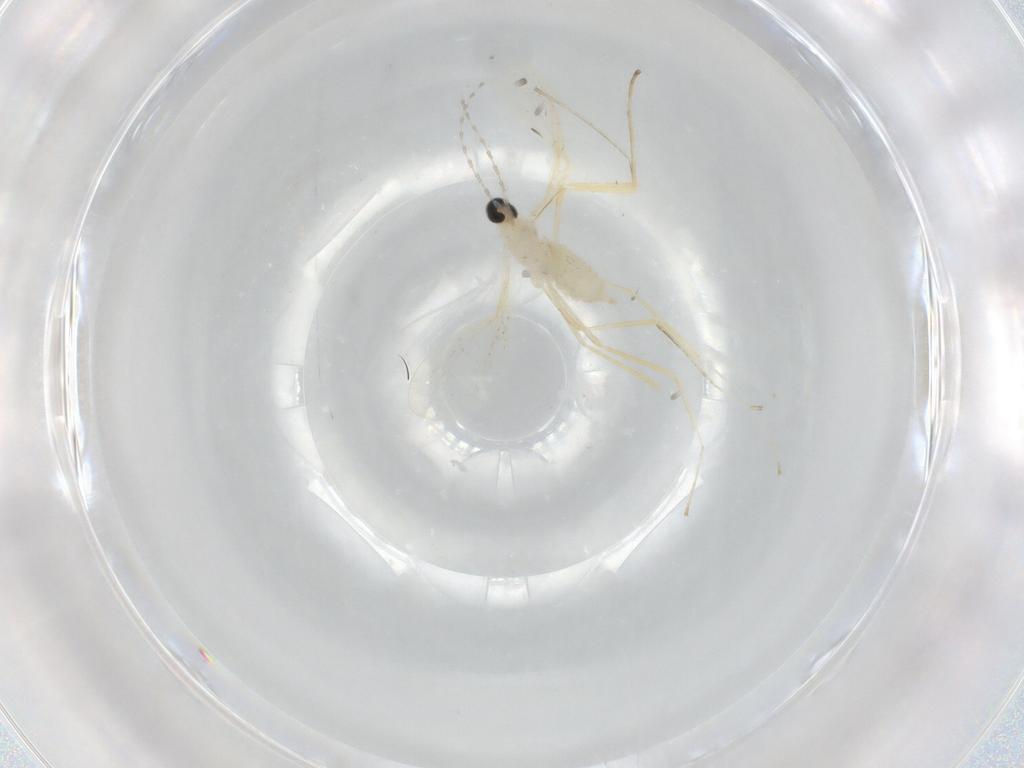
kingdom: Animalia
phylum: Arthropoda
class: Insecta
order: Diptera
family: Cecidomyiidae
